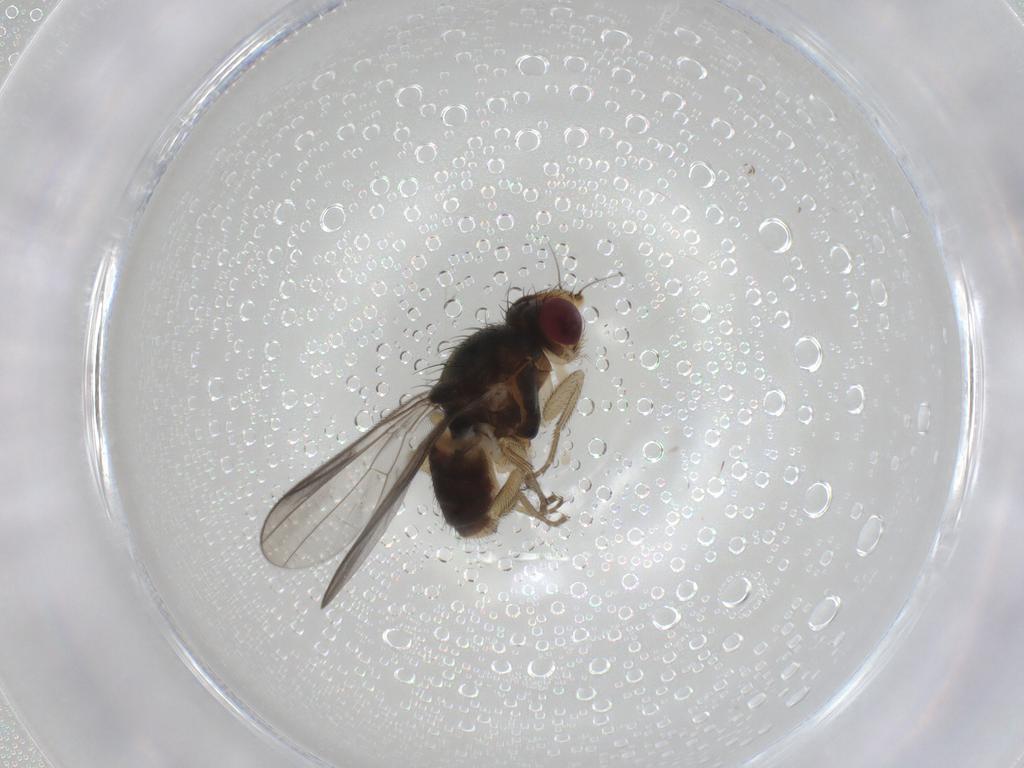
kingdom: Animalia
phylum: Arthropoda
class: Insecta
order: Diptera
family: Chloropidae
